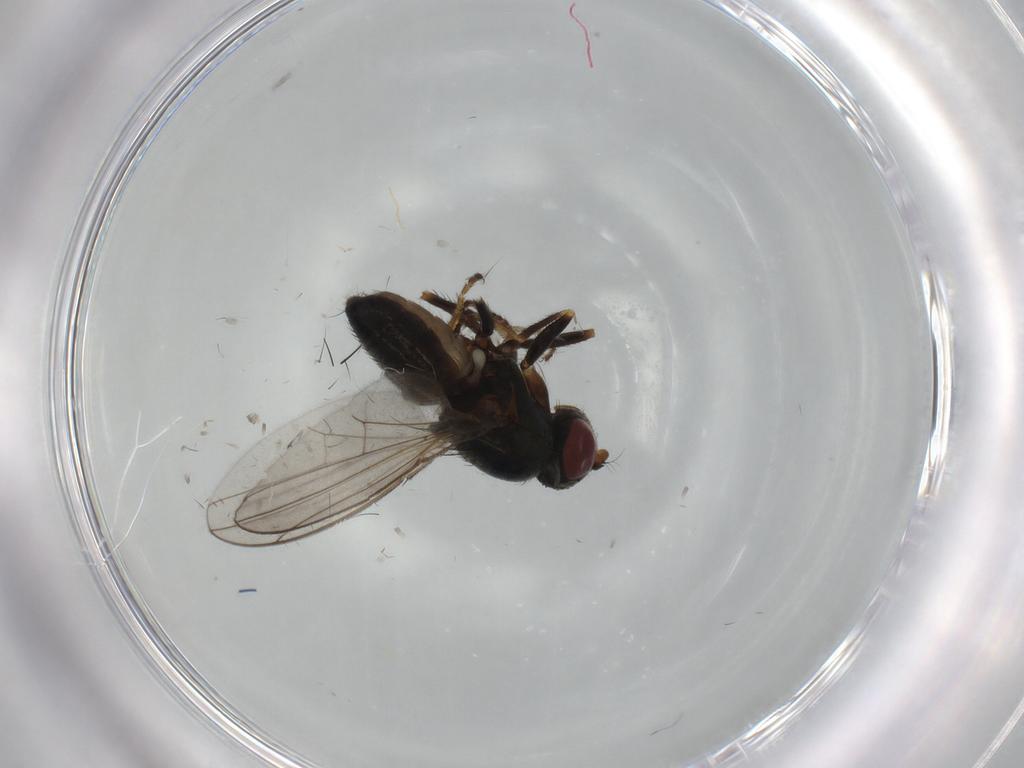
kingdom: Animalia
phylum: Arthropoda
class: Insecta
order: Diptera
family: Muscidae
